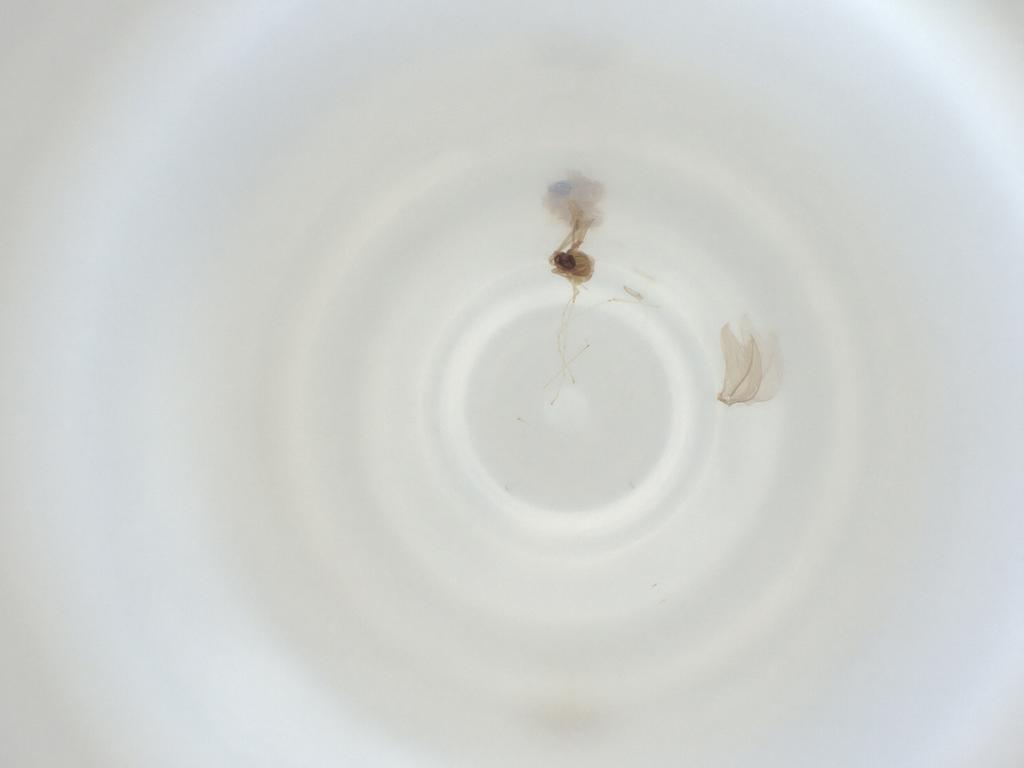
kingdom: Animalia
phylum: Arthropoda
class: Insecta
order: Diptera
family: Cecidomyiidae
